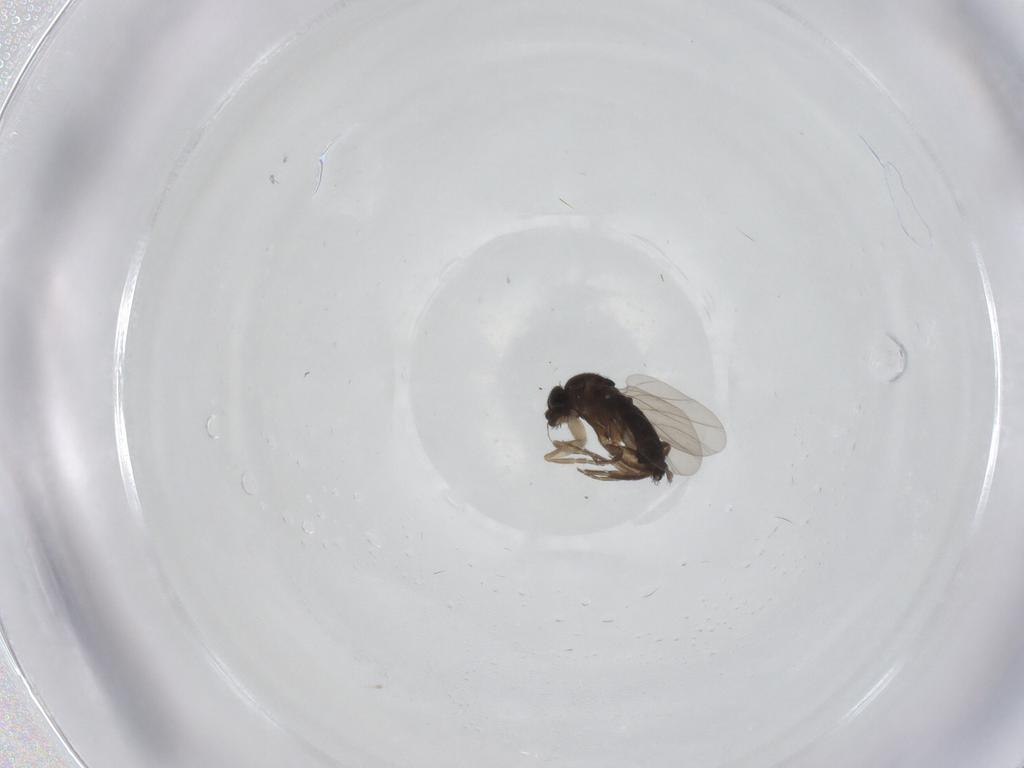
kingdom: Animalia
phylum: Arthropoda
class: Insecta
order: Diptera
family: Phoridae
